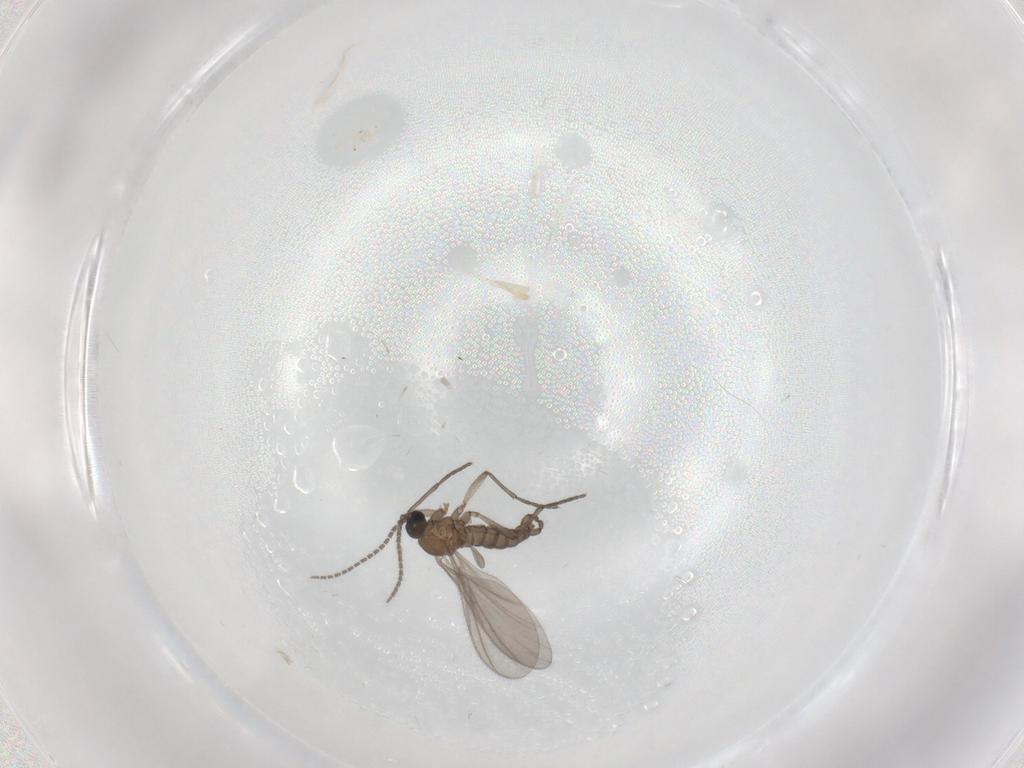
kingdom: Animalia
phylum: Arthropoda
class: Insecta
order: Diptera
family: Sciaridae
